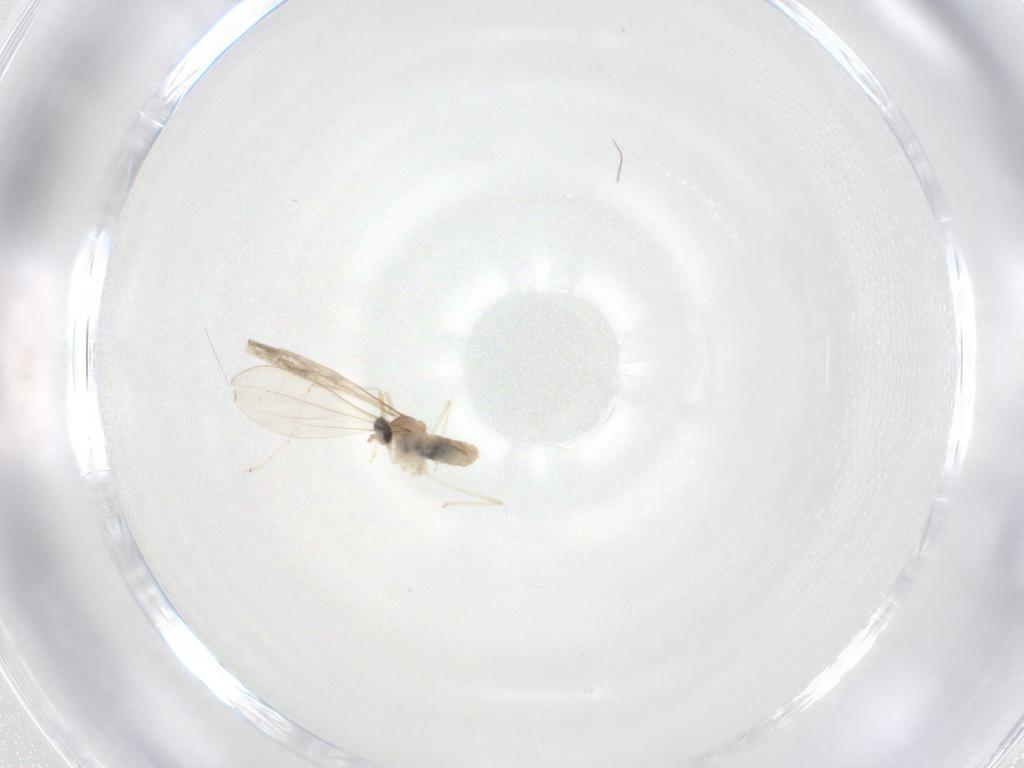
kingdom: Animalia
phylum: Arthropoda
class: Insecta
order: Diptera
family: Cecidomyiidae
